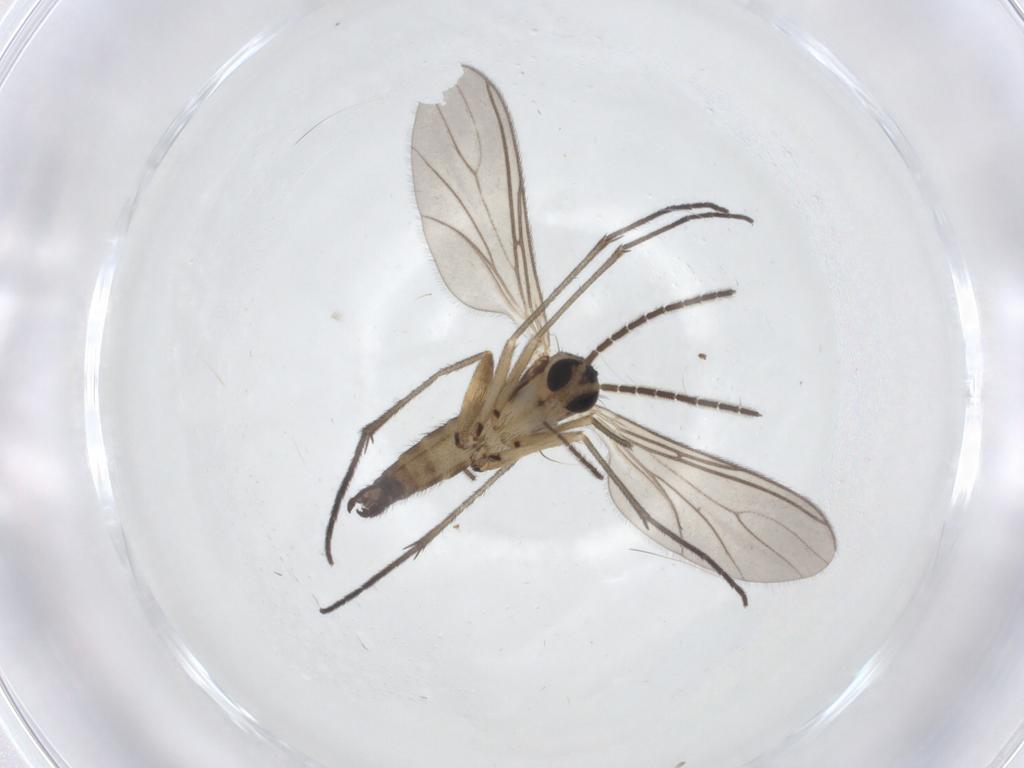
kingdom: Animalia
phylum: Arthropoda
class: Insecta
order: Diptera
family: Sciaridae
